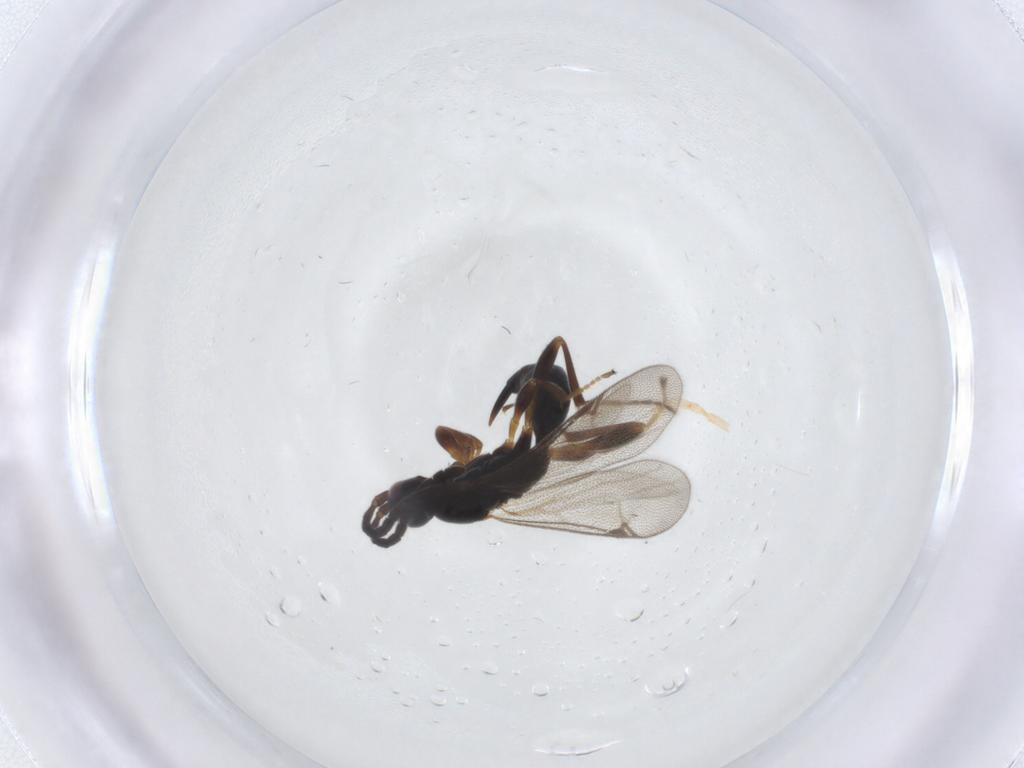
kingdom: Animalia
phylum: Arthropoda
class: Insecta
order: Hymenoptera
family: Proctotrupidae
